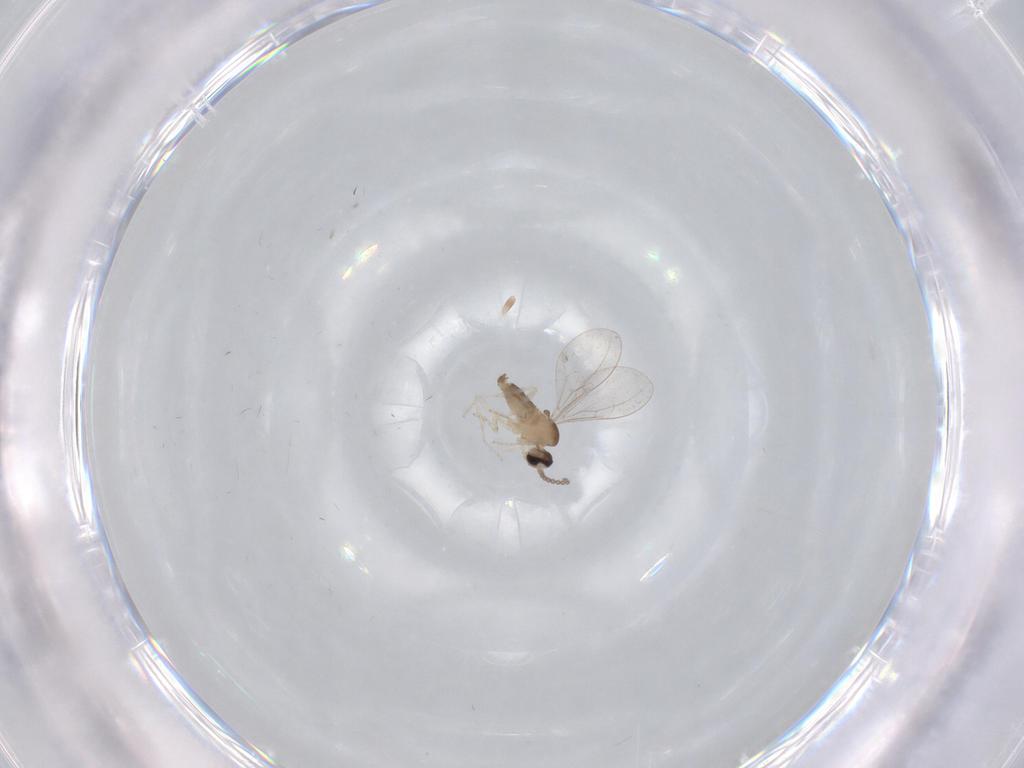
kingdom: Animalia
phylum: Arthropoda
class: Insecta
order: Diptera
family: Cecidomyiidae
